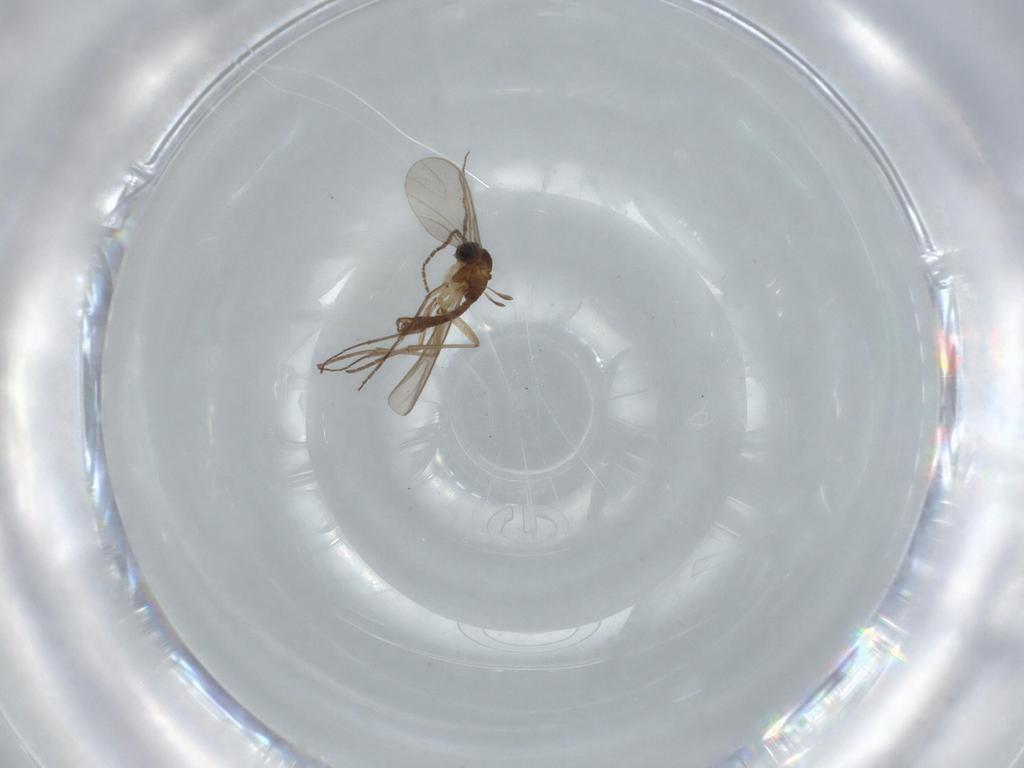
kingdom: Animalia
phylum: Arthropoda
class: Insecta
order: Diptera
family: Sciaridae
